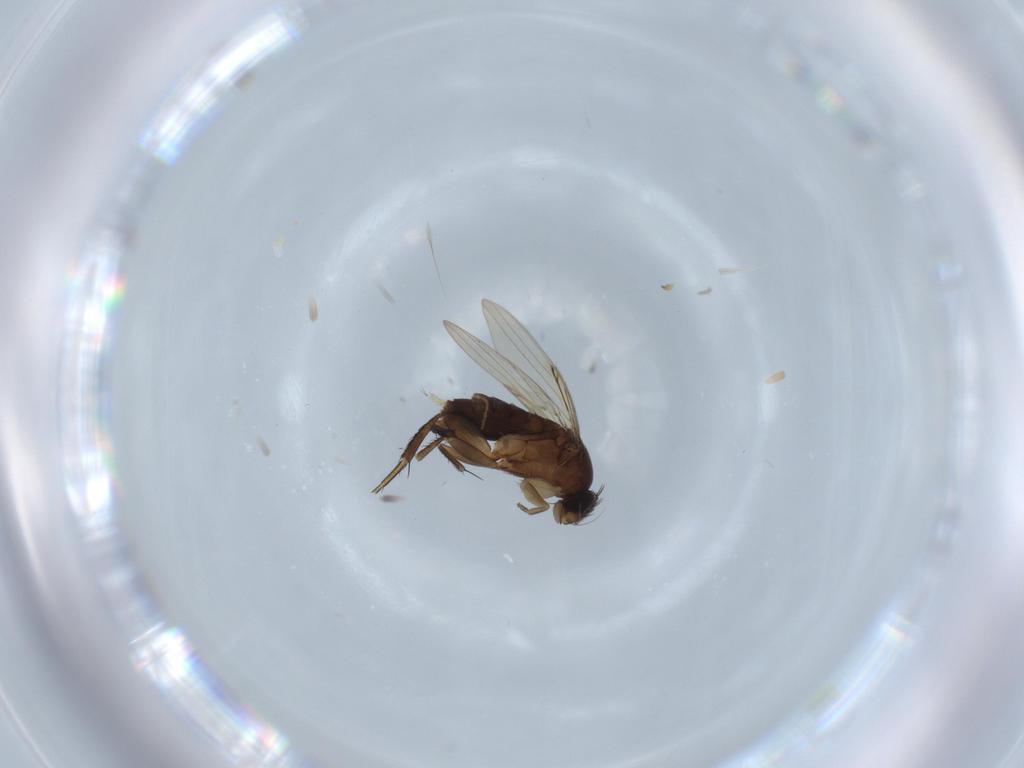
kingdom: Animalia
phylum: Arthropoda
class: Insecta
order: Diptera
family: Phoridae
